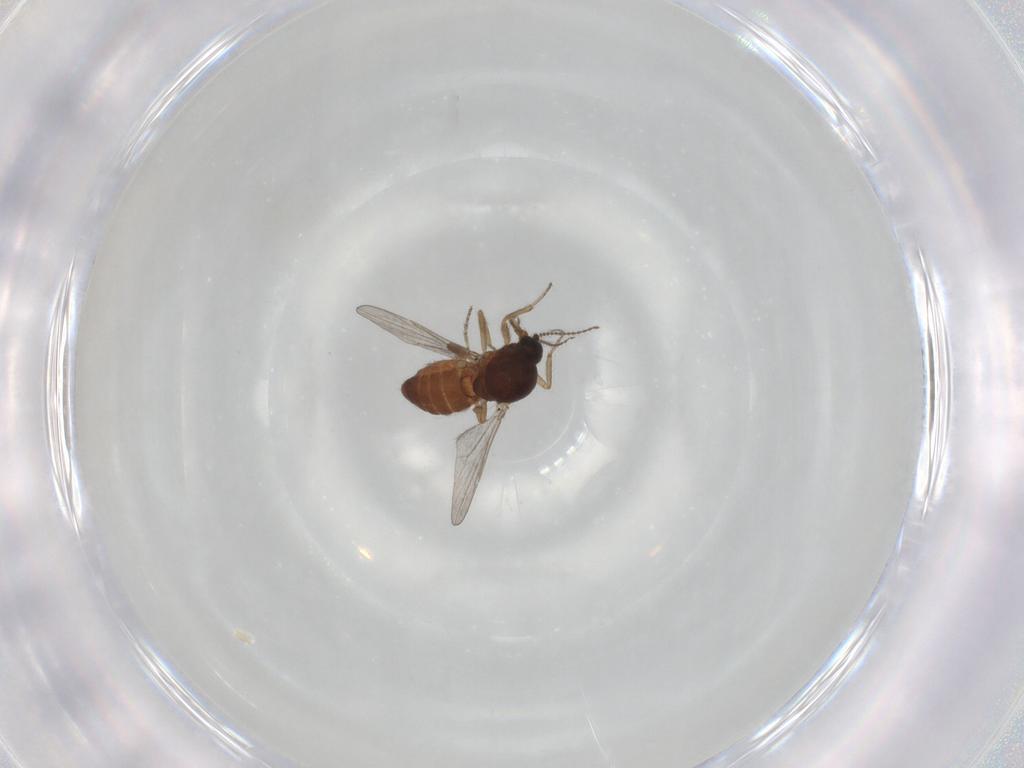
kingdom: Animalia
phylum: Arthropoda
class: Insecta
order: Diptera
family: Ceratopogonidae
